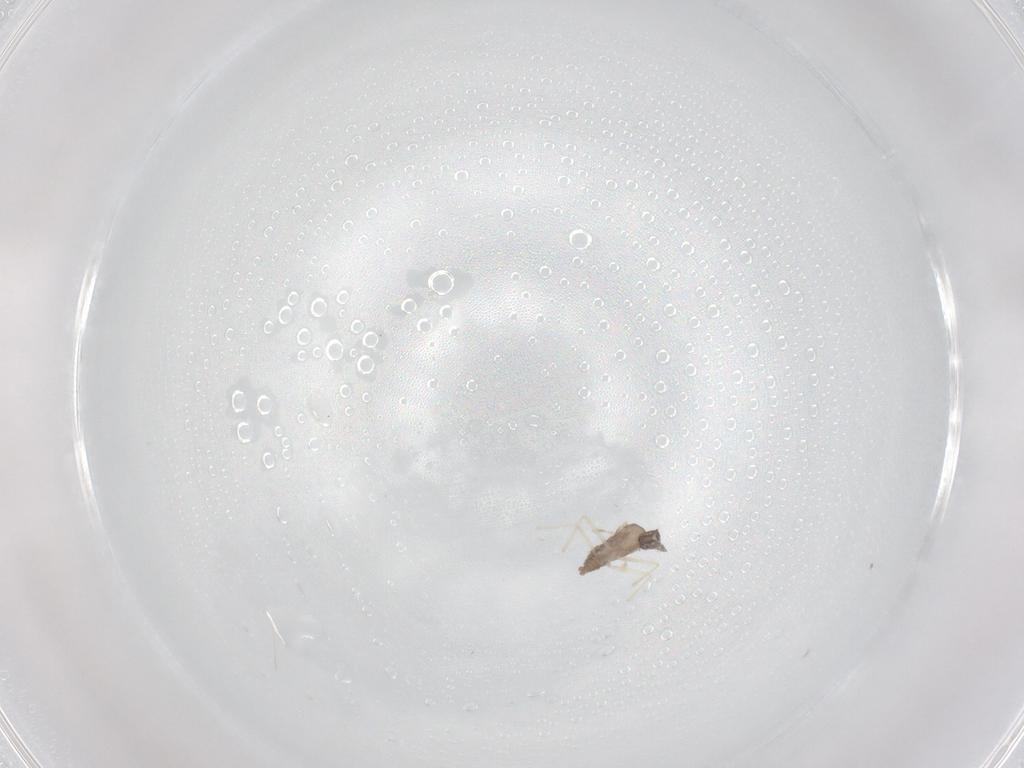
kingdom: Animalia
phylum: Arthropoda
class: Insecta
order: Diptera
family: Cecidomyiidae
